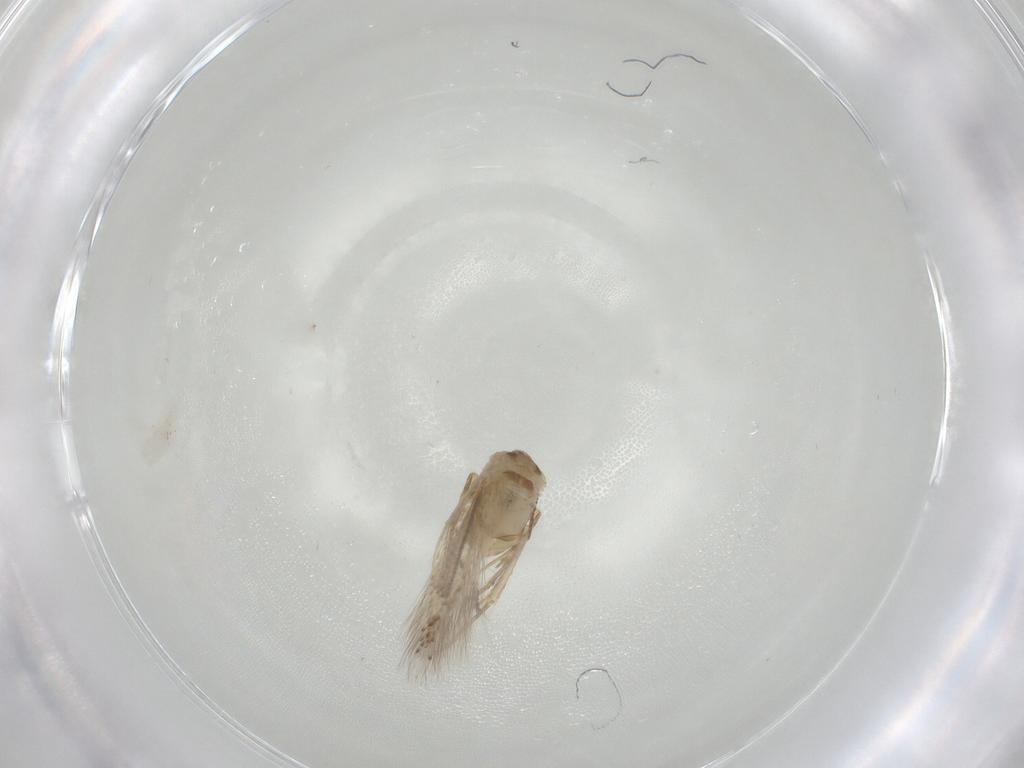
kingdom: Animalia
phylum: Arthropoda
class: Insecta
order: Lepidoptera
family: Bucculatricidae
